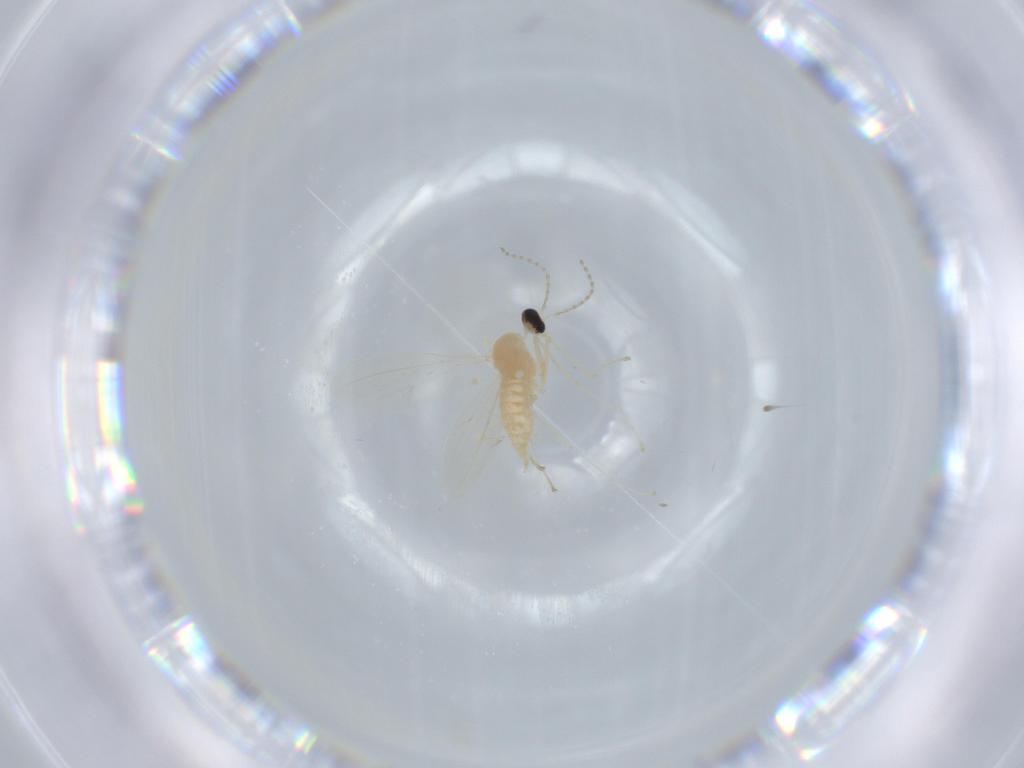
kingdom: Animalia
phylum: Arthropoda
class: Insecta
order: Diptera
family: Cecidomyiidae
